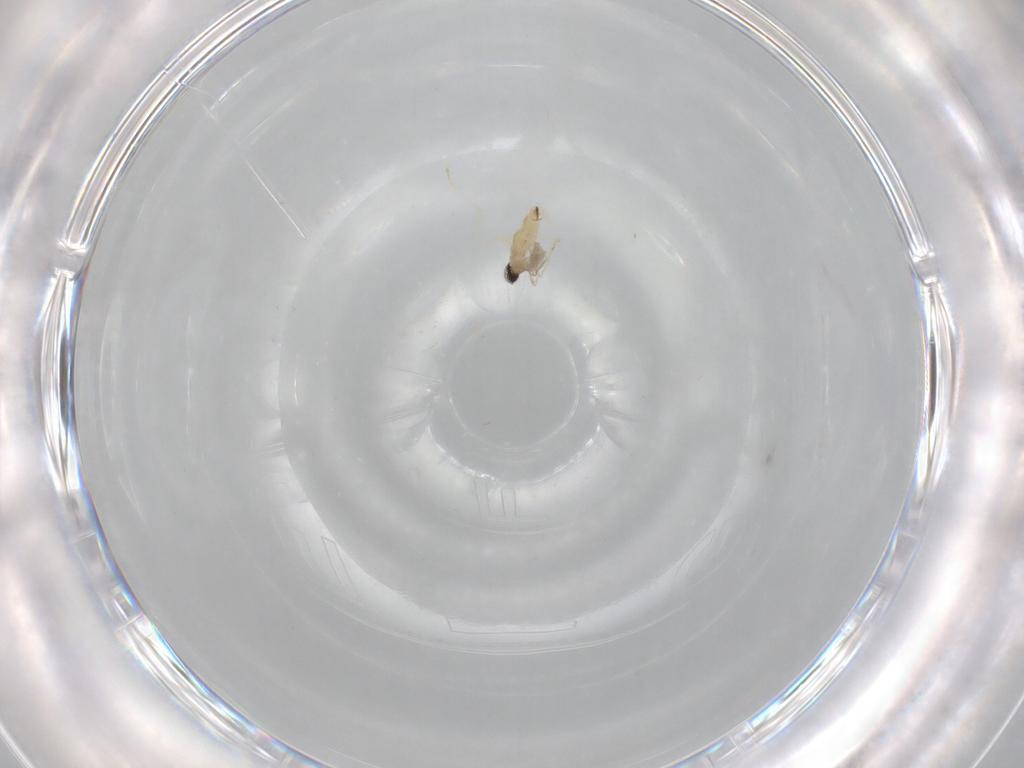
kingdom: Animalia
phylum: Arthropoda
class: Insecta
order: Diptera
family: Cecidomyiidae
